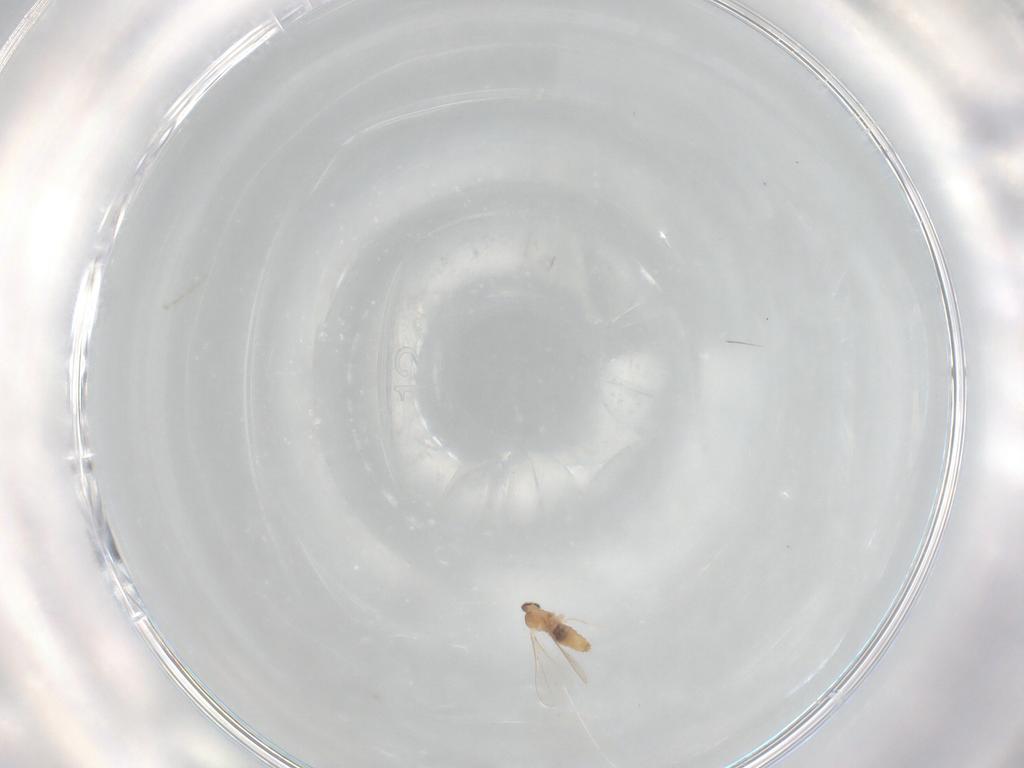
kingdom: Animalia
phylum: Arthropoda
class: Insecta
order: Diptera
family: Cecidomyiidae
